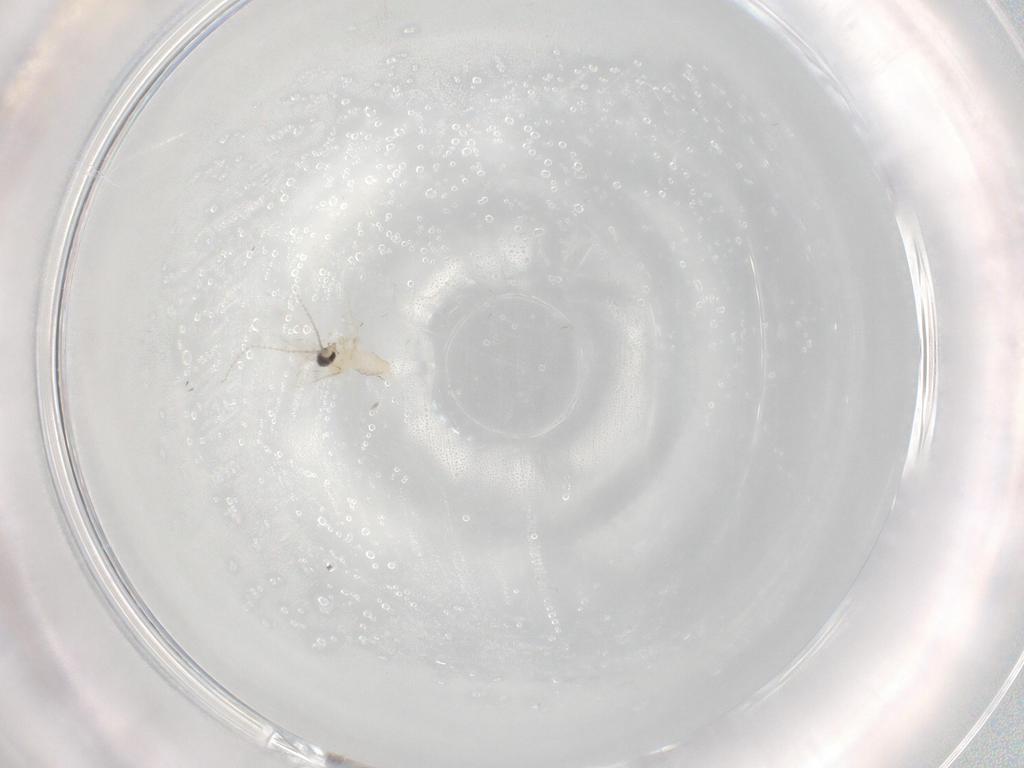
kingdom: Animalia
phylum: Arthropoda
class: Insecta
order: Diptera
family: Cecidomyiidae
